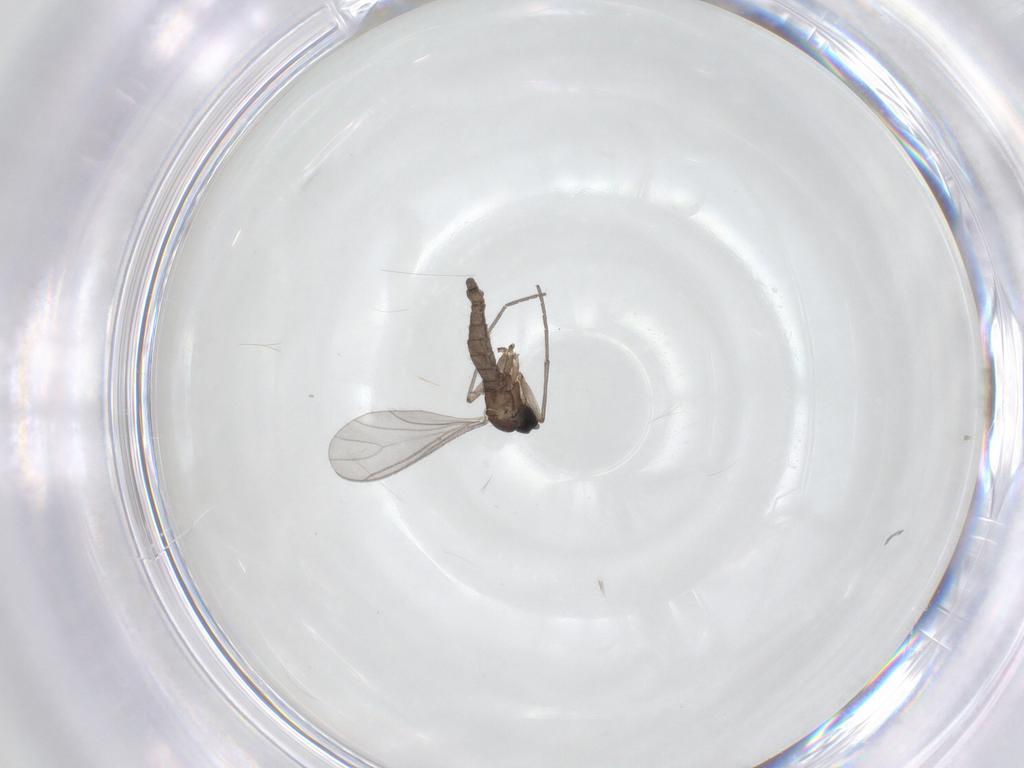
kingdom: Animalia
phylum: Arthropoda
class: Insecta
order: Diptera
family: Sciaridae
